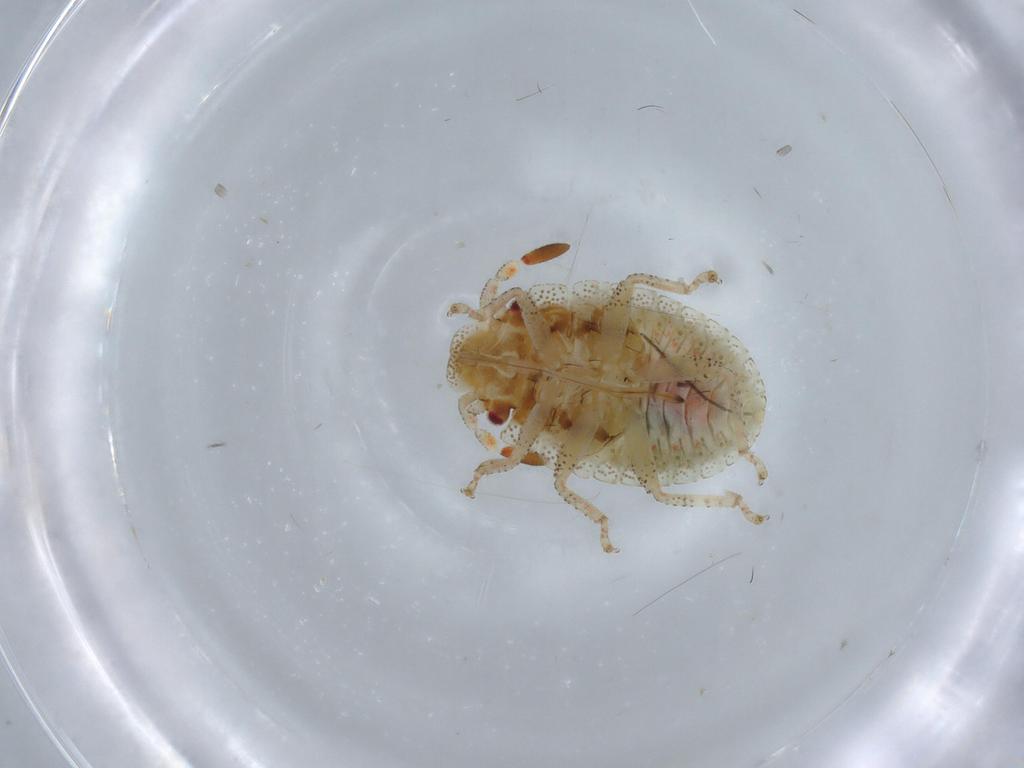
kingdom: Animalia
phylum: Arthropoda
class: Insecta
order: Hemiptera
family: Pentatomidae
